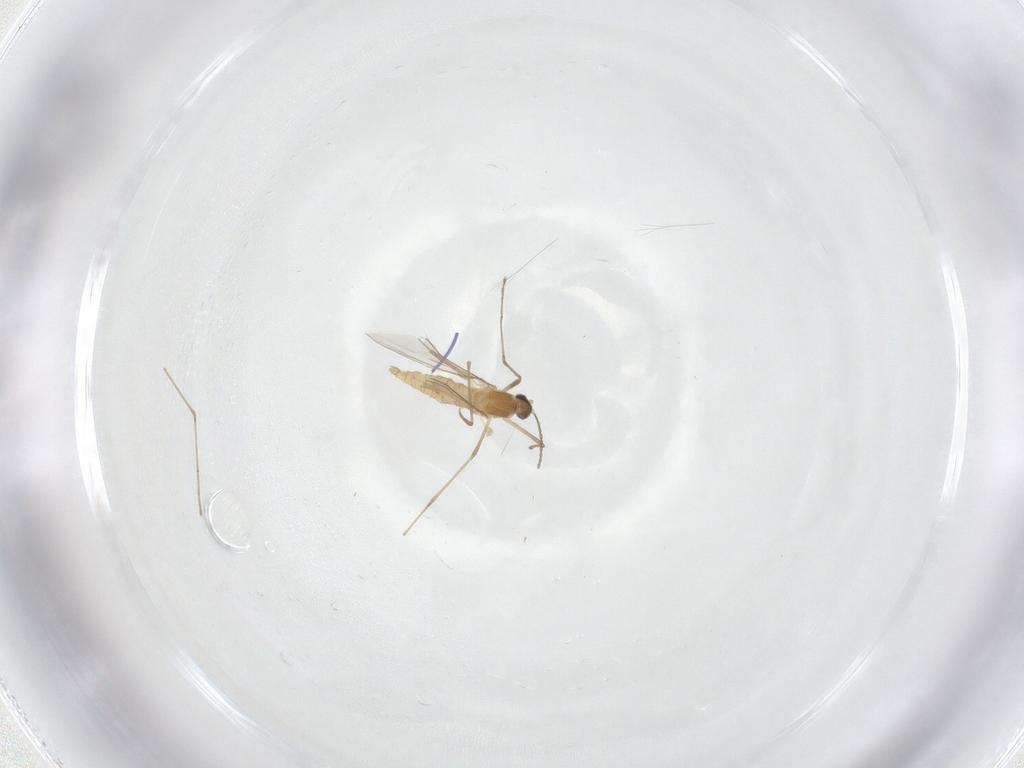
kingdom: Animalia
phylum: Arthropoda
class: Insecta
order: Diptera
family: Cecidomyiidae
